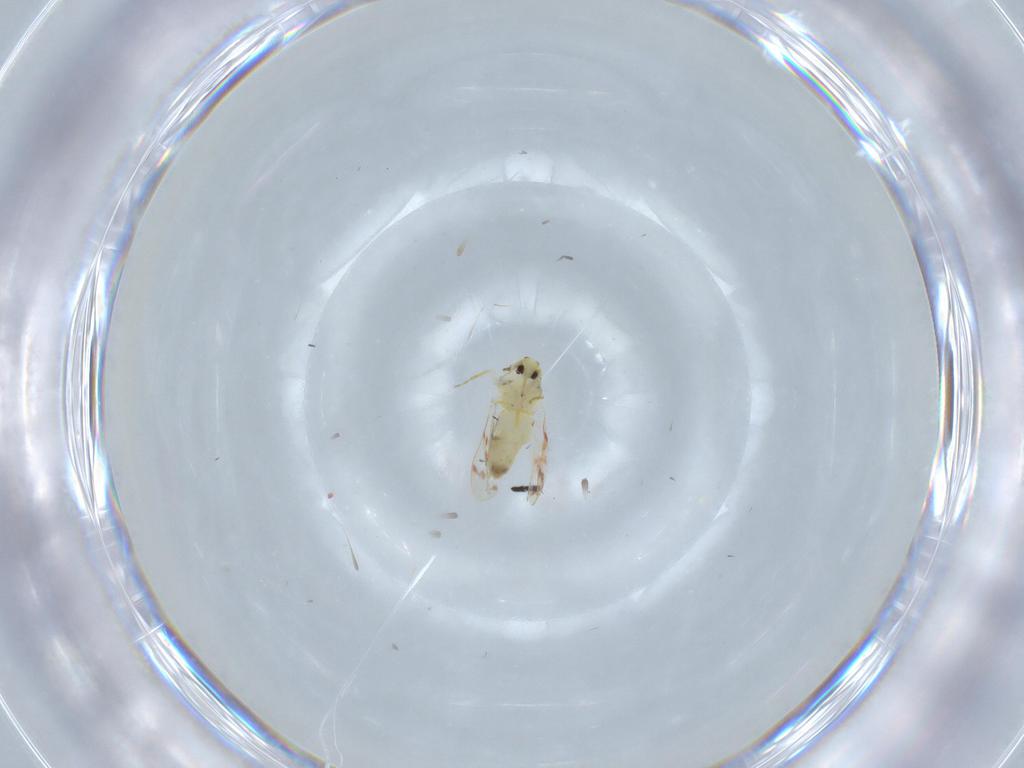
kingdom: Animalia
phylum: Arthropoda
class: Insecta
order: Hemiptera
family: Aleyrodidae
